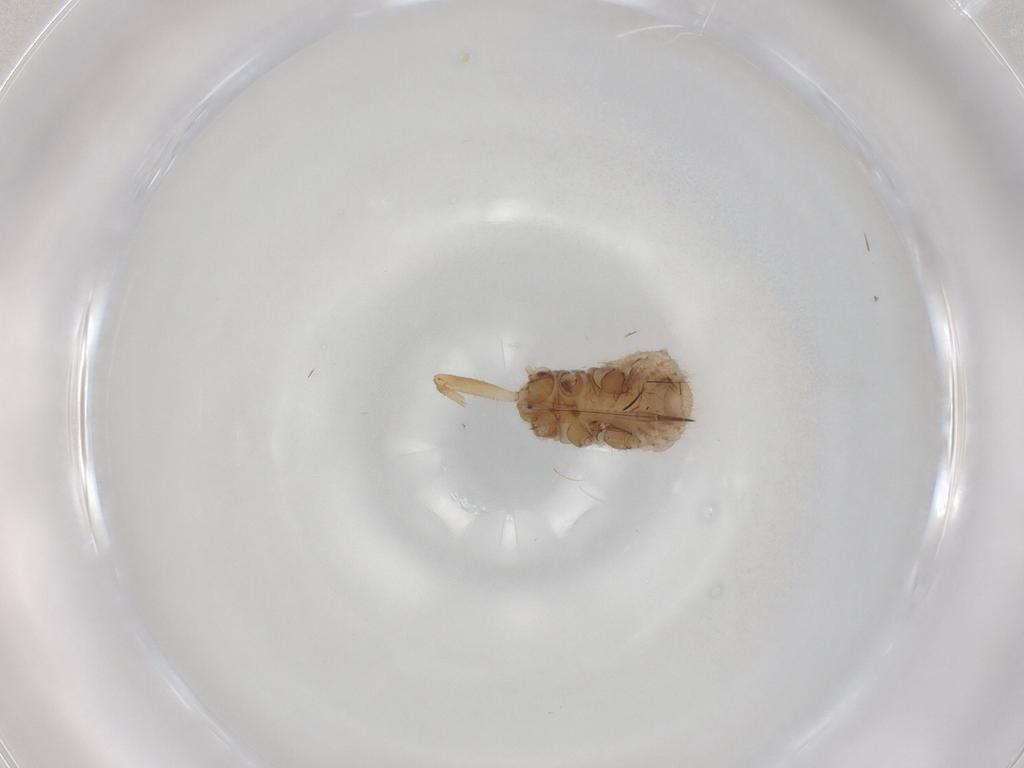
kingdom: Animalia
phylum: Arthropoda
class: Insecta
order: Hemiptera
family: Aphididae
